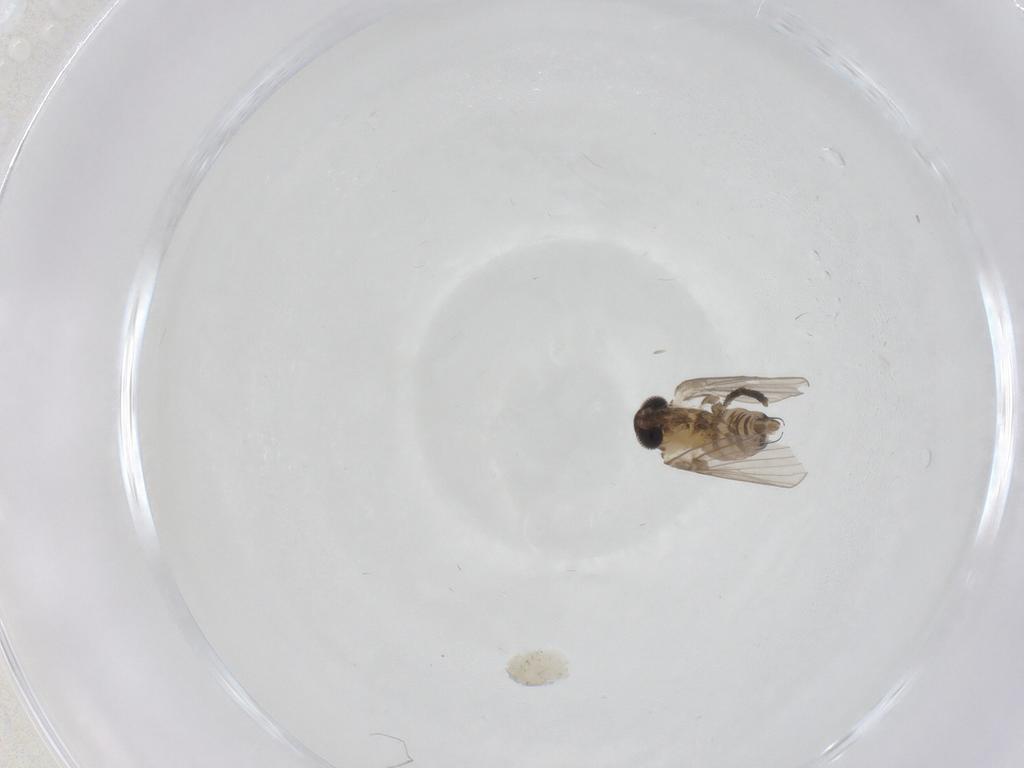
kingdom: Animalia
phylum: Arthropoda
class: Insecta
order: Diptera
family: Psychodidae
